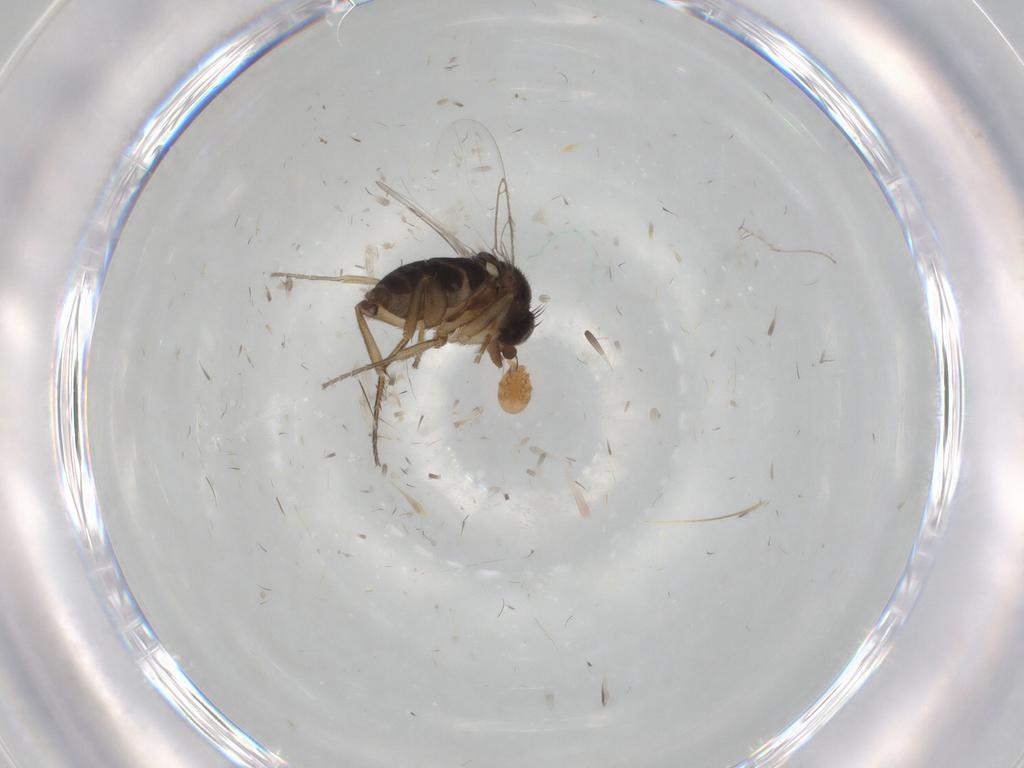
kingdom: Animalia
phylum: Arthropoda
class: Insecta
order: Diptera
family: Phoridae
